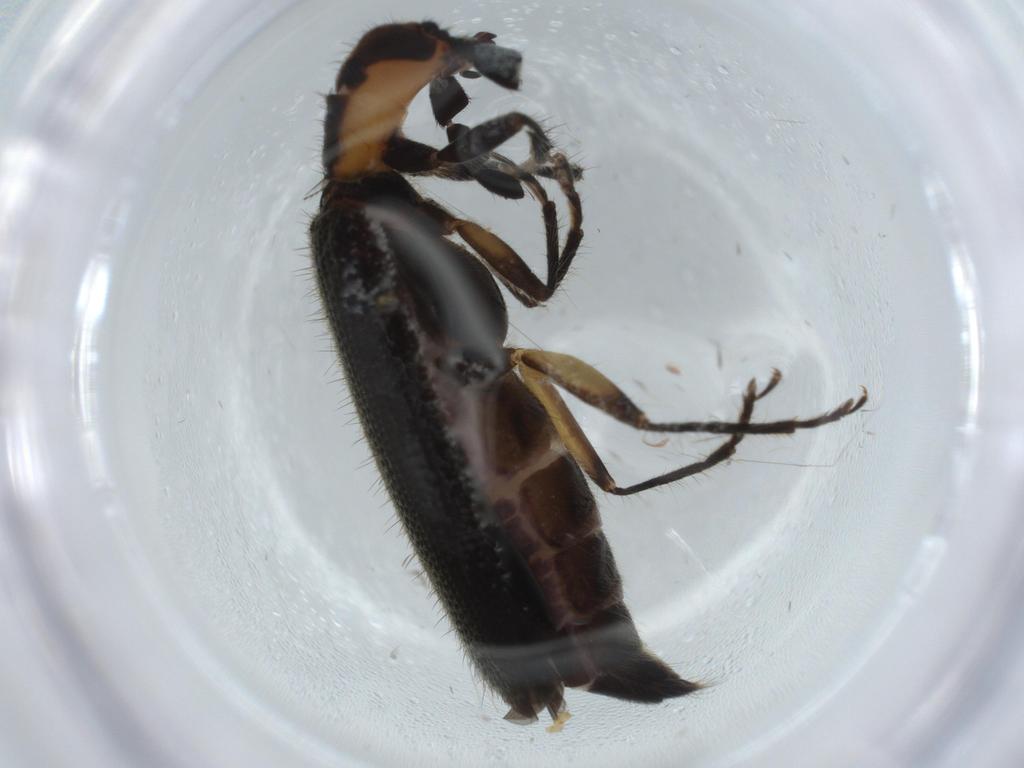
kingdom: Animalia
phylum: Arthropoda
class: Insecta
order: Coleoptera
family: Cleridae
